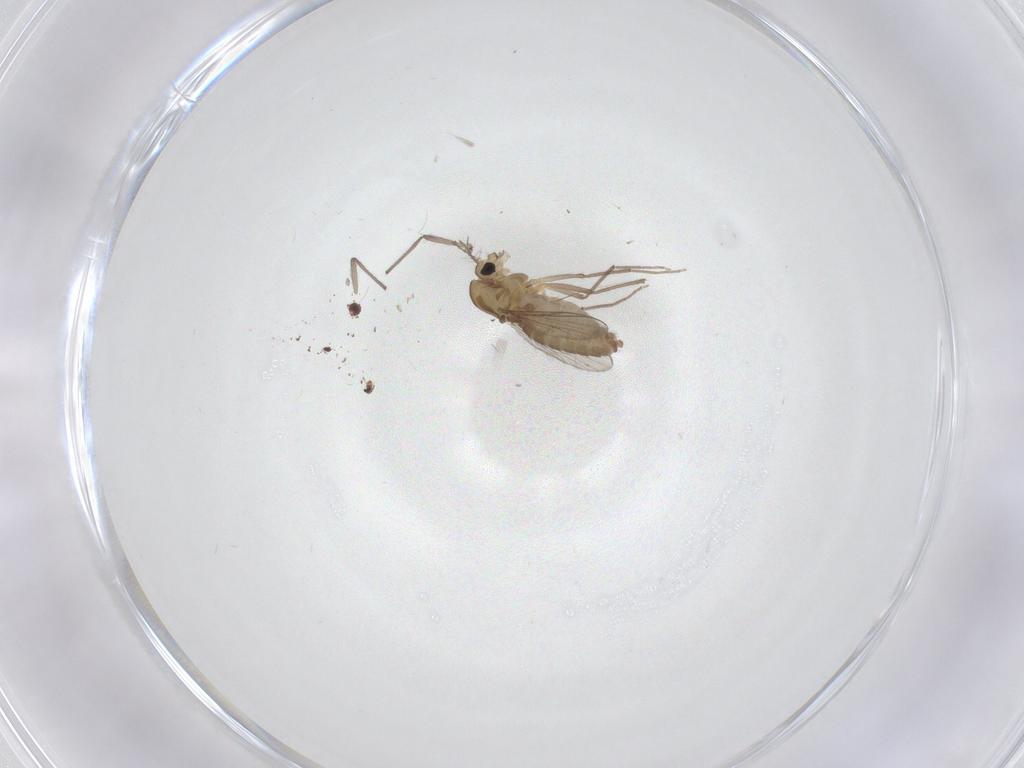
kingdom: Animalia
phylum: Arthropoda
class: Insecta
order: Diptera
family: Chironomidae
